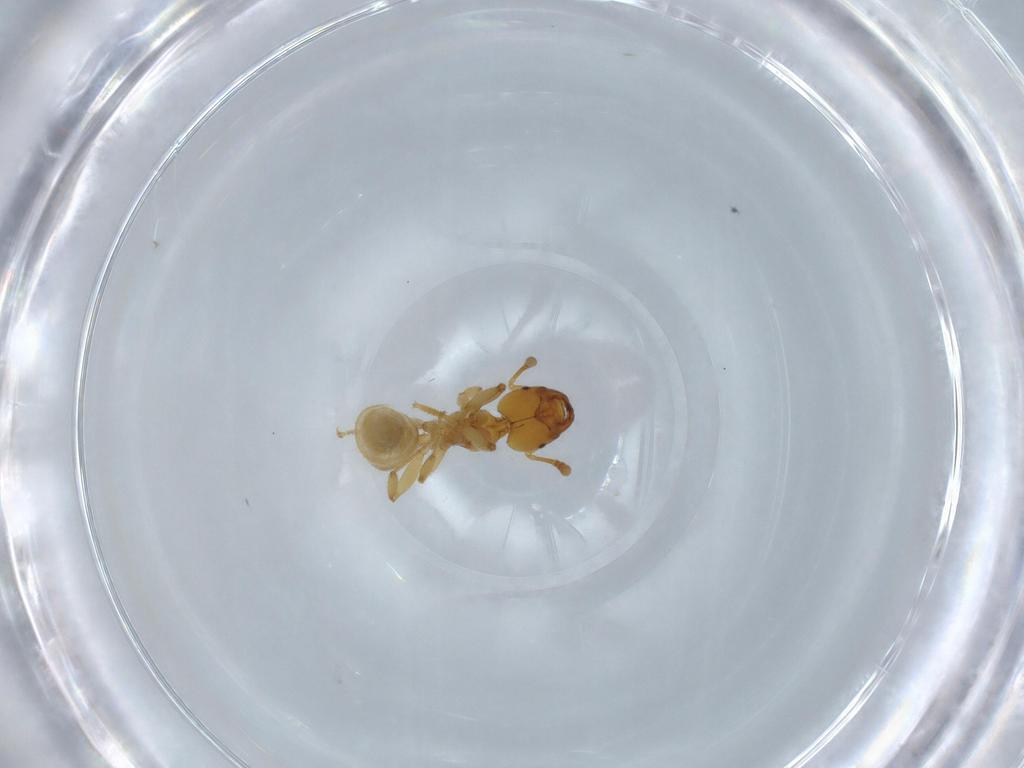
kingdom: Animalia
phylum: Arthropoda
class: Insecta
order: Hymenoptera
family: Formicidae
